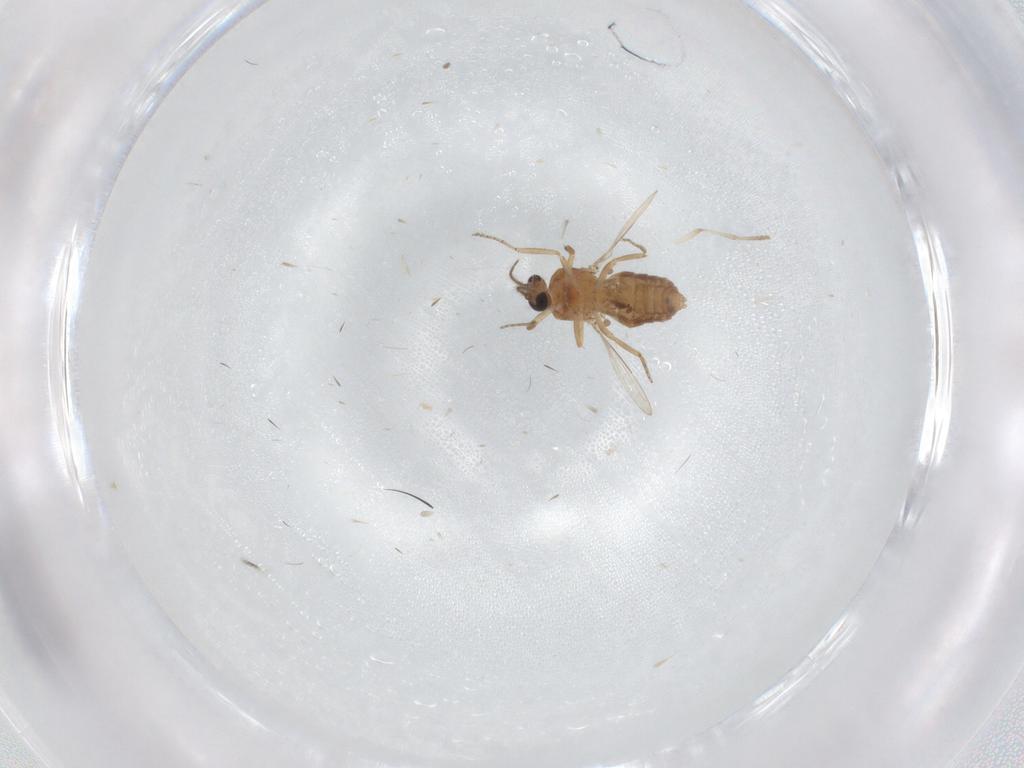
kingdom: Animalia
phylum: Arthropoda
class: Insecta
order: Diptera
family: Ceratopogonidae
